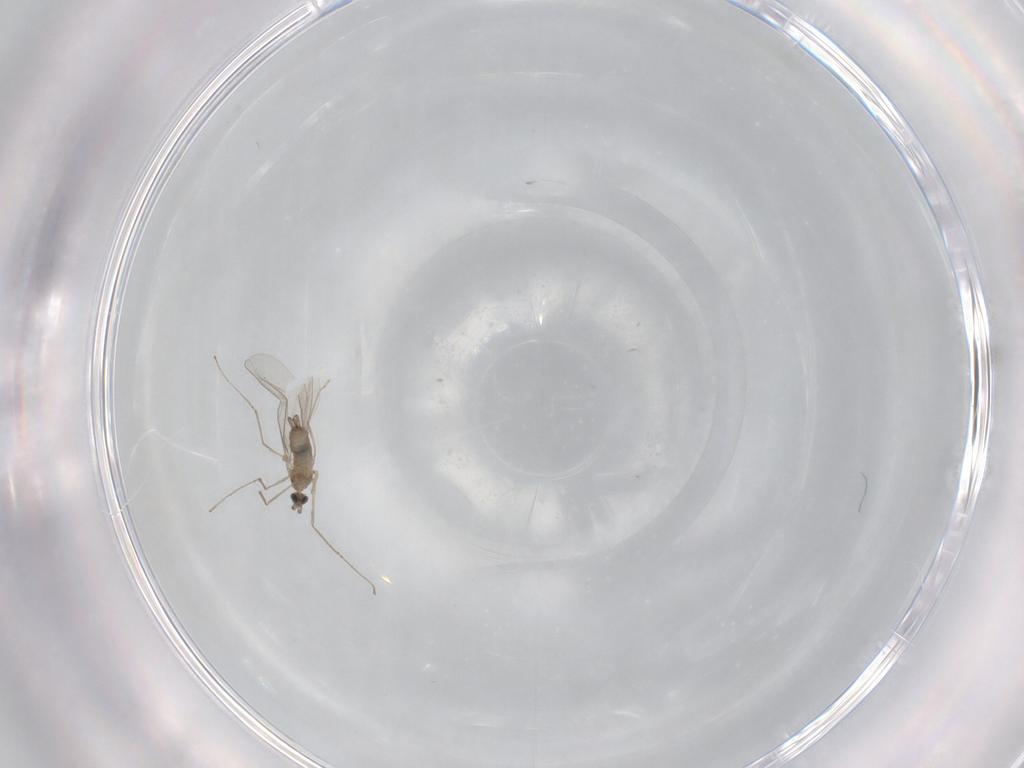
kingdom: Animalia
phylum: Arthropoda
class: Insecta
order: Diptera
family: Cecidomyiidae
